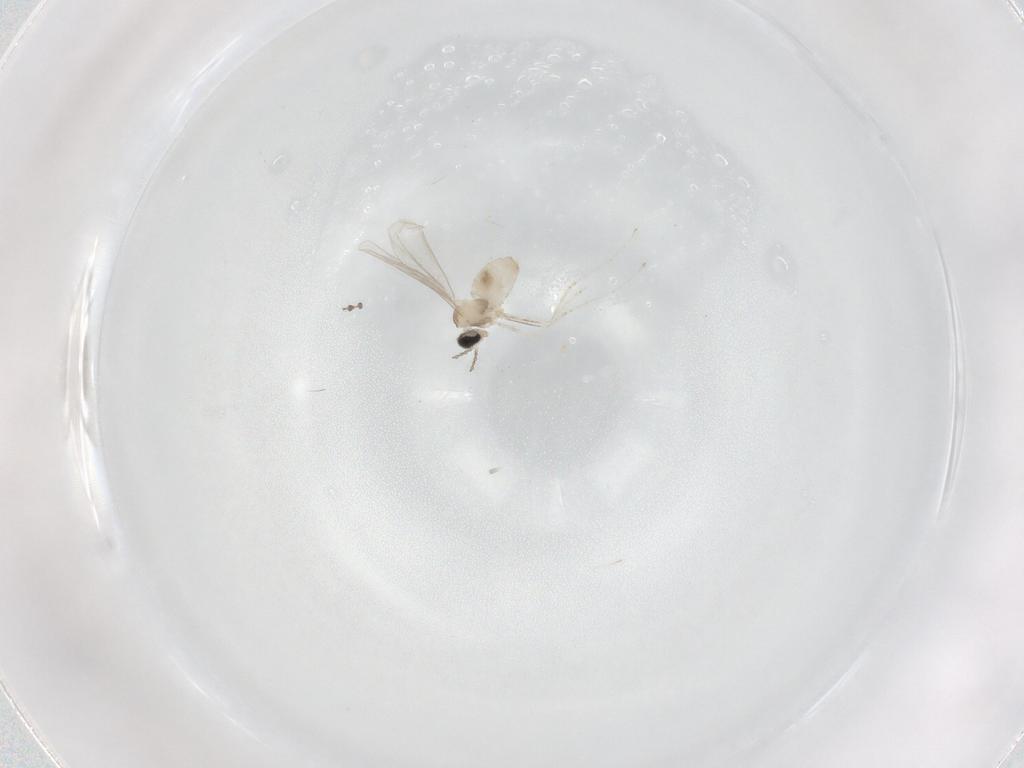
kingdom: Animalia
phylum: Arthropoda
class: Insecta
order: Diptera
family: Cecidomyiidae
